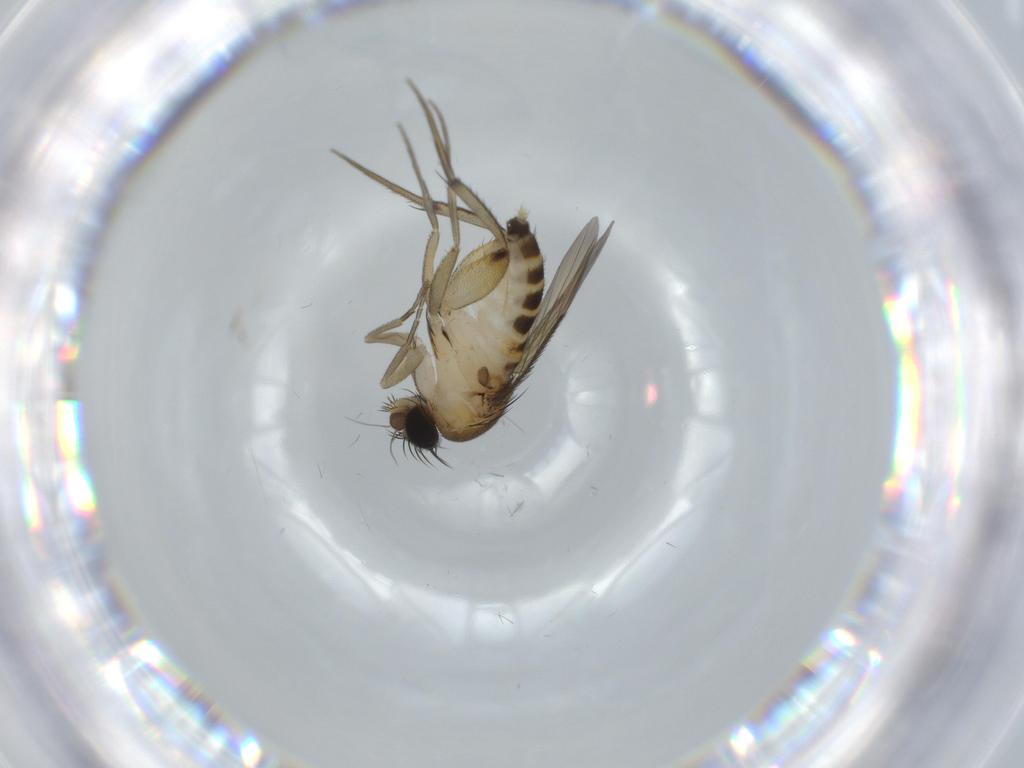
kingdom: Animalia
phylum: Arthropoda
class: Insecta
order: Diptera
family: Phoridae
